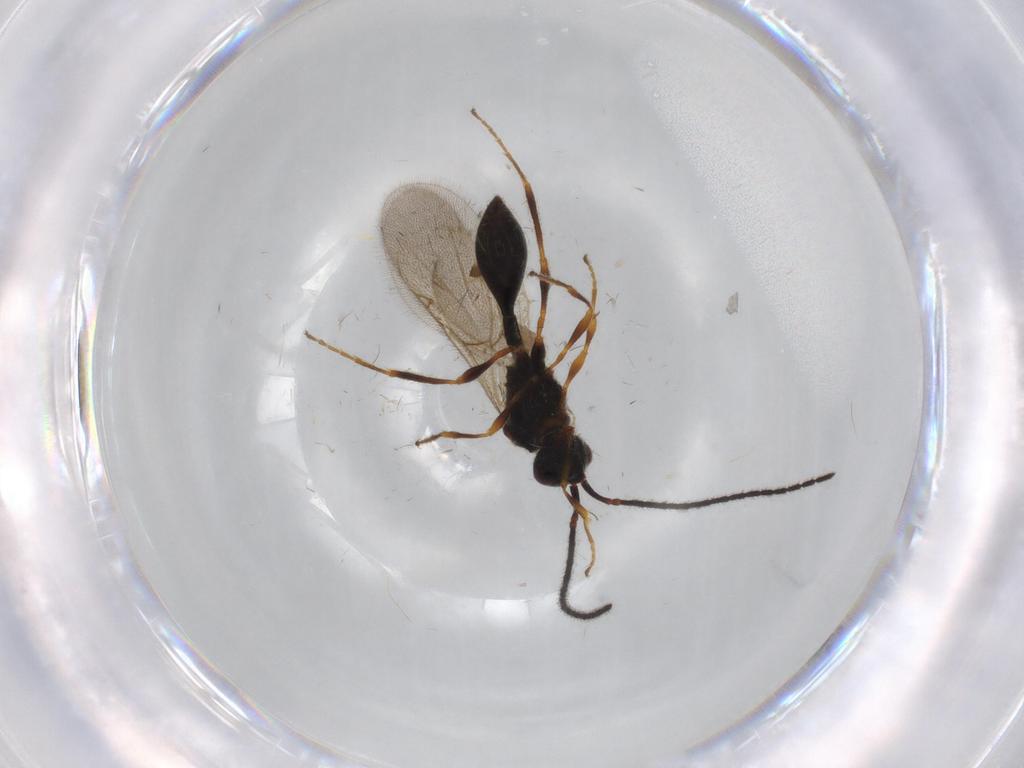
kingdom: Animalia
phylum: Arthropoda
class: Insecta
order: Hymenoptera
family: Diapriidae
